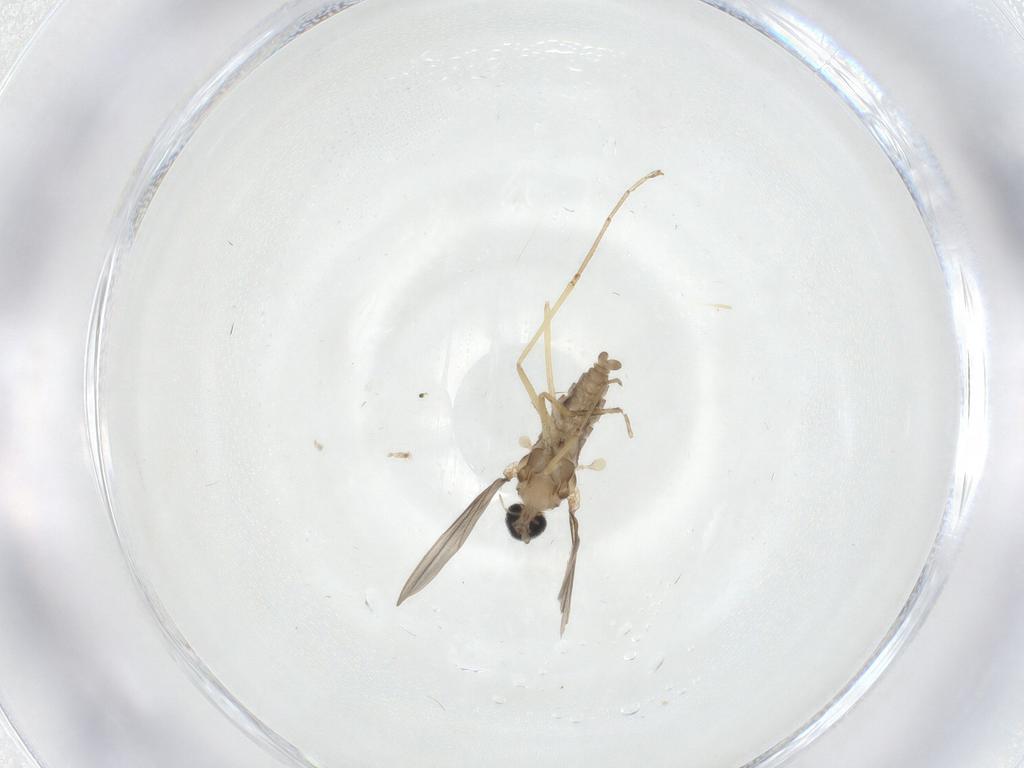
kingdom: Animalia
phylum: Arthropoda
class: Insecta
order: Diptera
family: Cecidomyiidae
